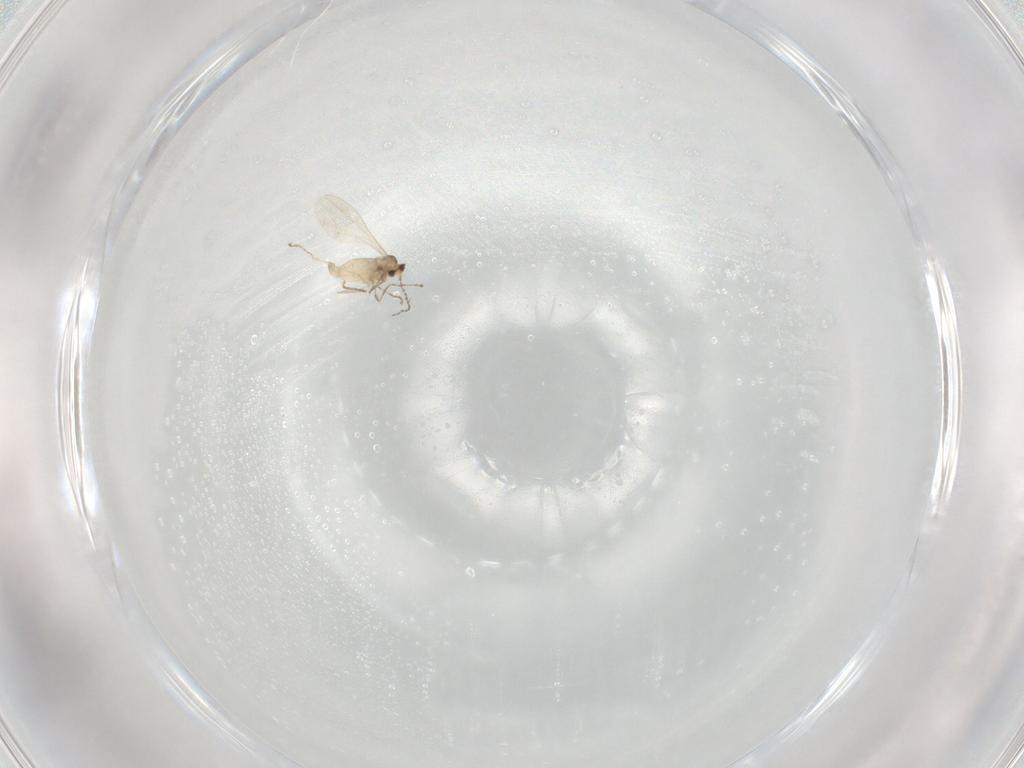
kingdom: Animalia
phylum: Arthropoda
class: Insecta
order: Diptera
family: Cecidomyiidae
